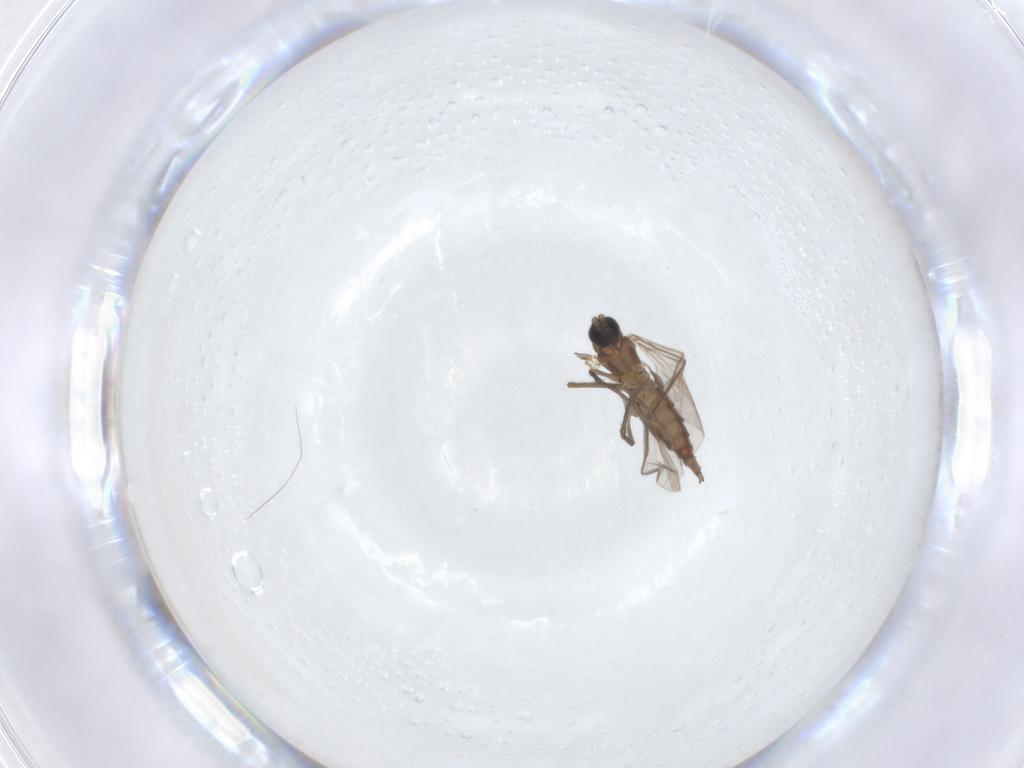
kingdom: Animalia
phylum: Arthropoda
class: Insecta
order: Diptera
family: Sciaridae
